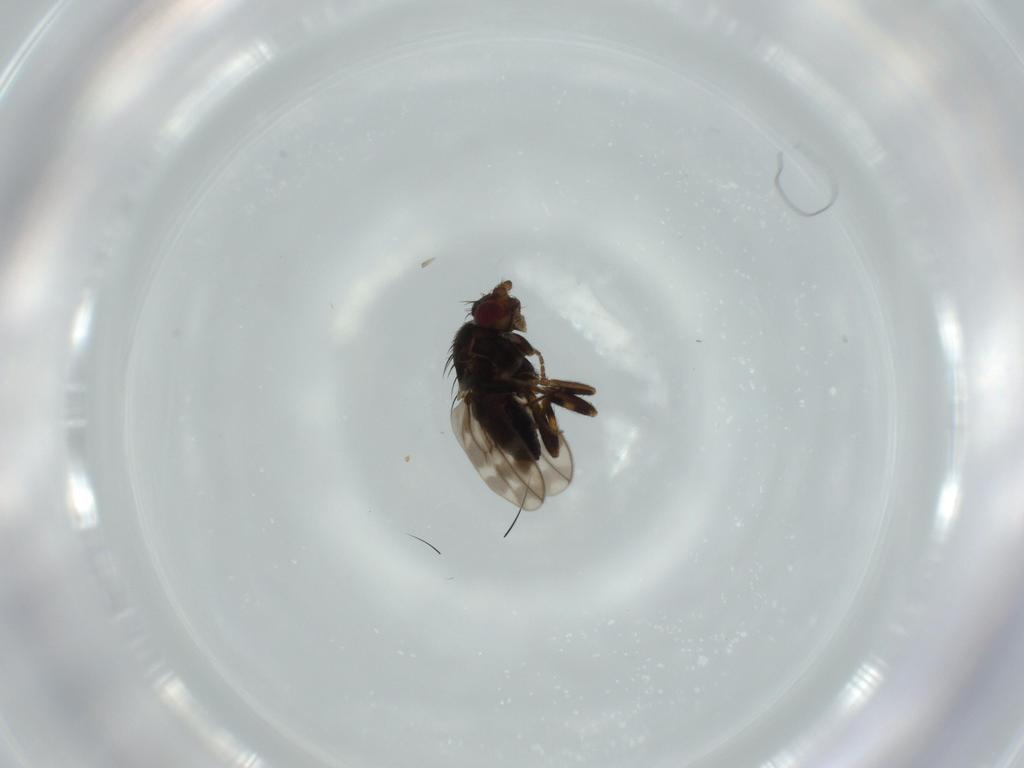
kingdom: Animalia
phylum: Arthropoda
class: Insecta
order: Diptera
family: Sphaeroceridae
